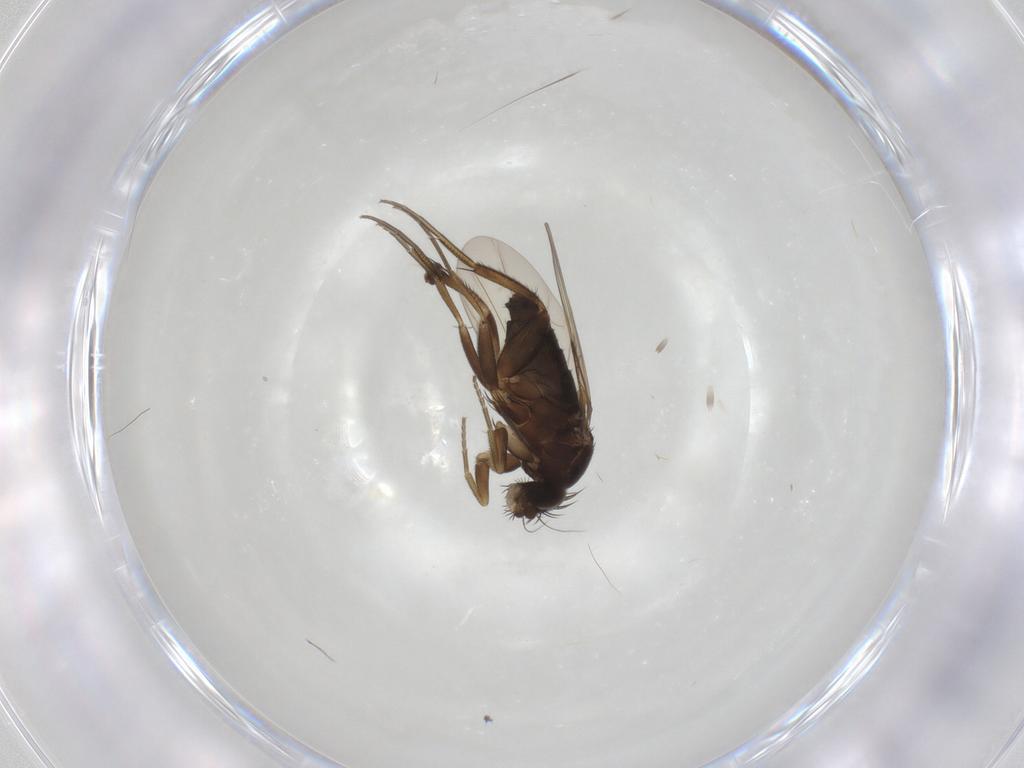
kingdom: Animalia
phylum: Arthropoda
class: Insecta
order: Diptera
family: Phoridae
